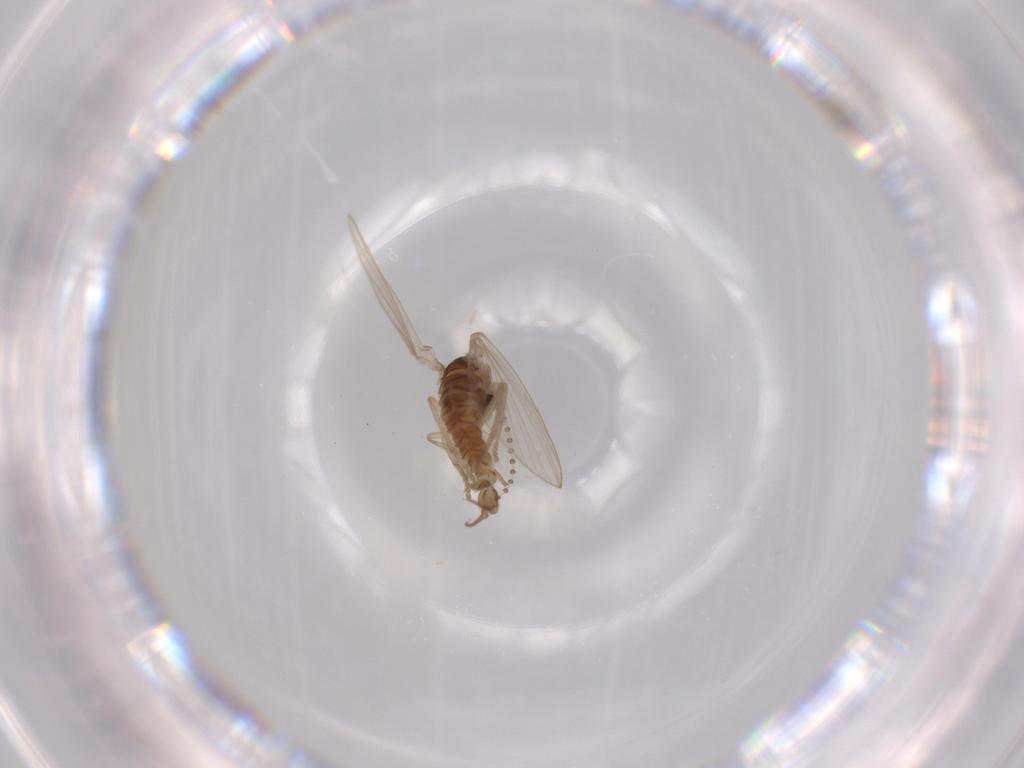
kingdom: Animalia
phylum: Arthropoda
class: Insecta
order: Diptera
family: Psychodidae
